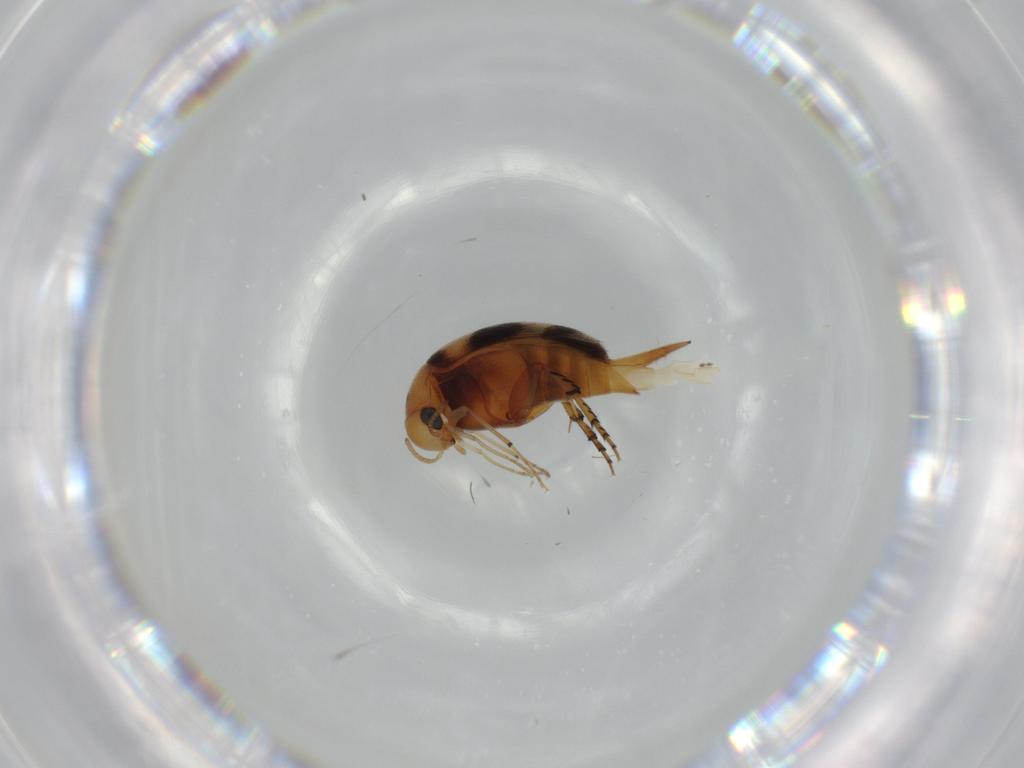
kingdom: Animalia
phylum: Arthropoda
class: Insecta
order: Coleoptera
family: Mordellidae
